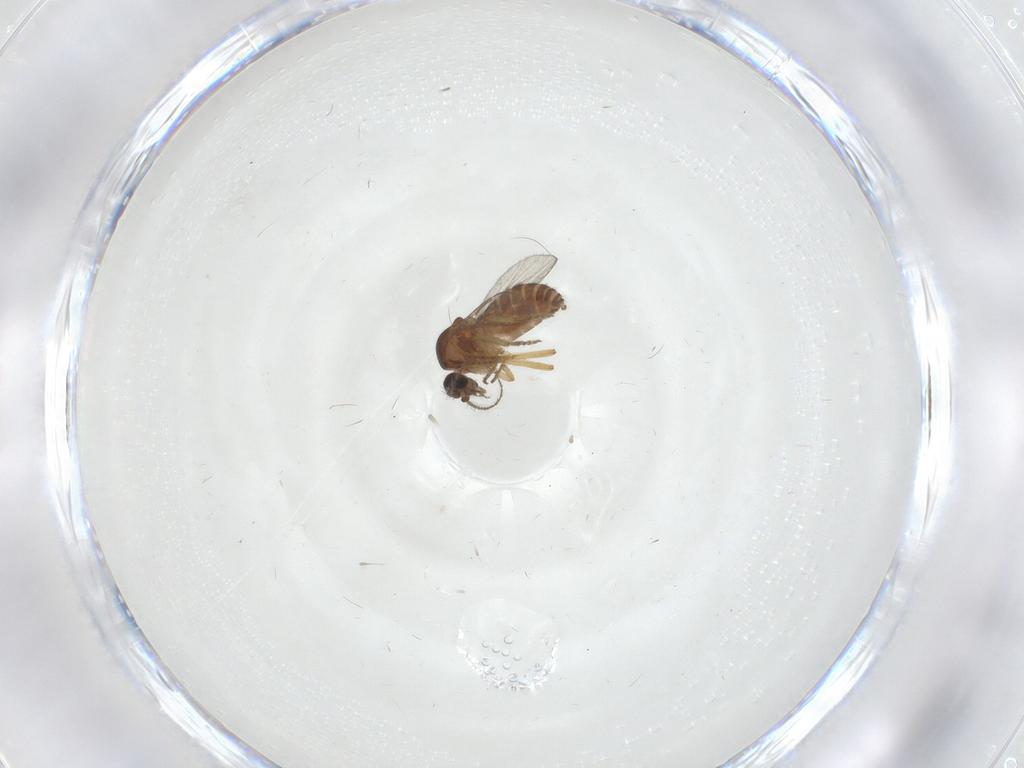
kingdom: Animalia
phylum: Arthropoda
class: Insecta
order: Diptera
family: Ceratopogonidae
